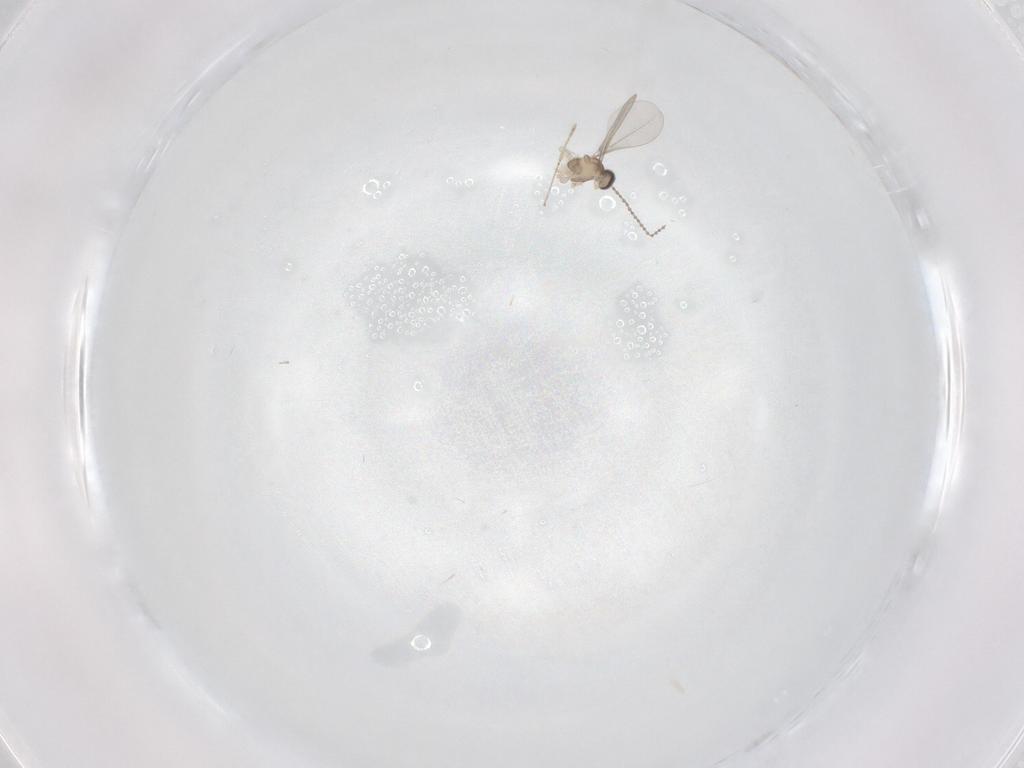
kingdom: Animalia
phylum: Arthropoda
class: Insecta
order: Diptera
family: Cecidomyiidae
